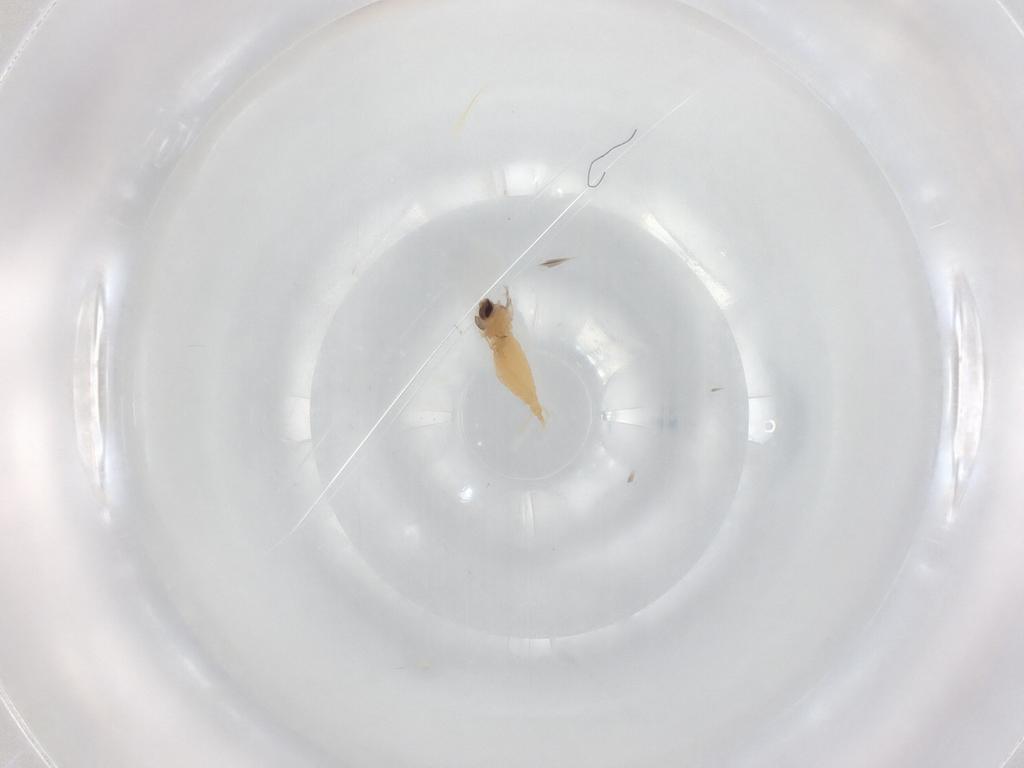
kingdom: Animalia
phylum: Arthropoda
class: Insecta
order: Diptera
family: Cecidomyiidae
